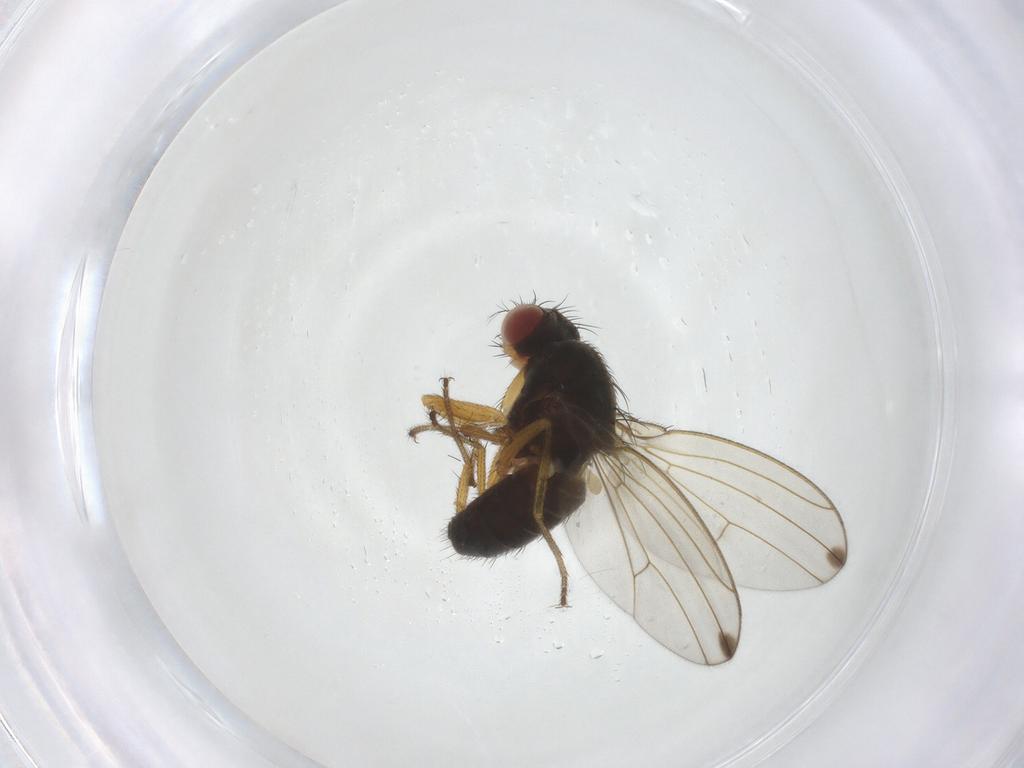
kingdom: Animalia
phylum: Arthropoda
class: Insecta
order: Diptera
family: Drosophilidae
